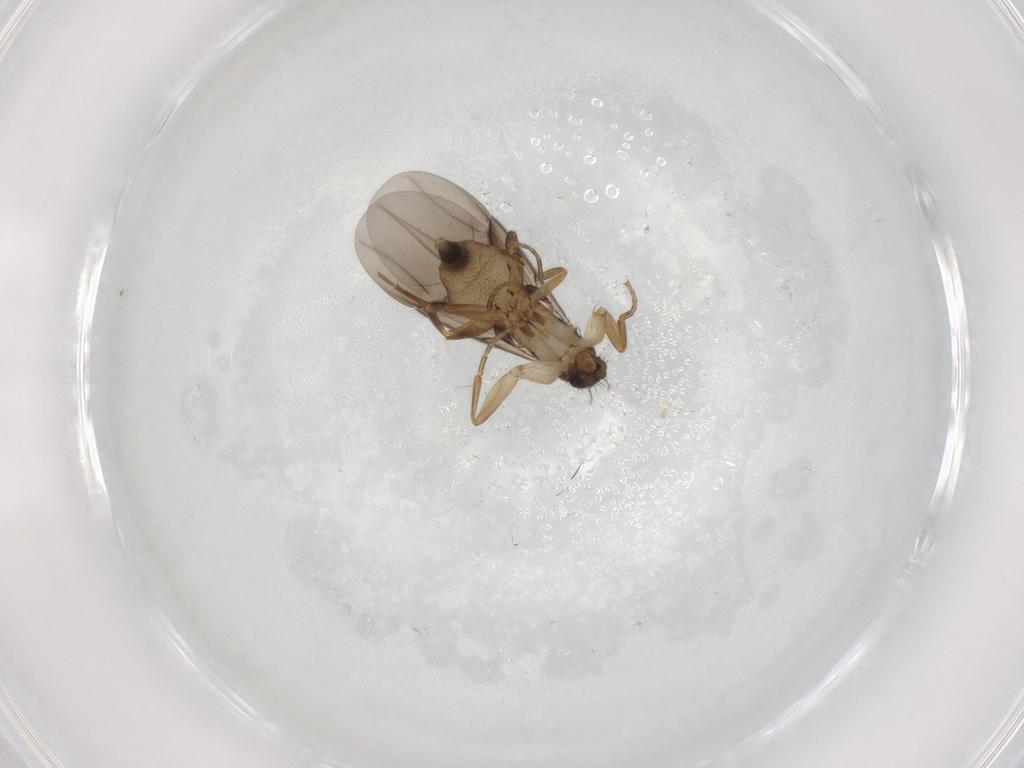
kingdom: Animalia
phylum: Arthropoda
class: Insecta
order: Diptera
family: Phoridae
